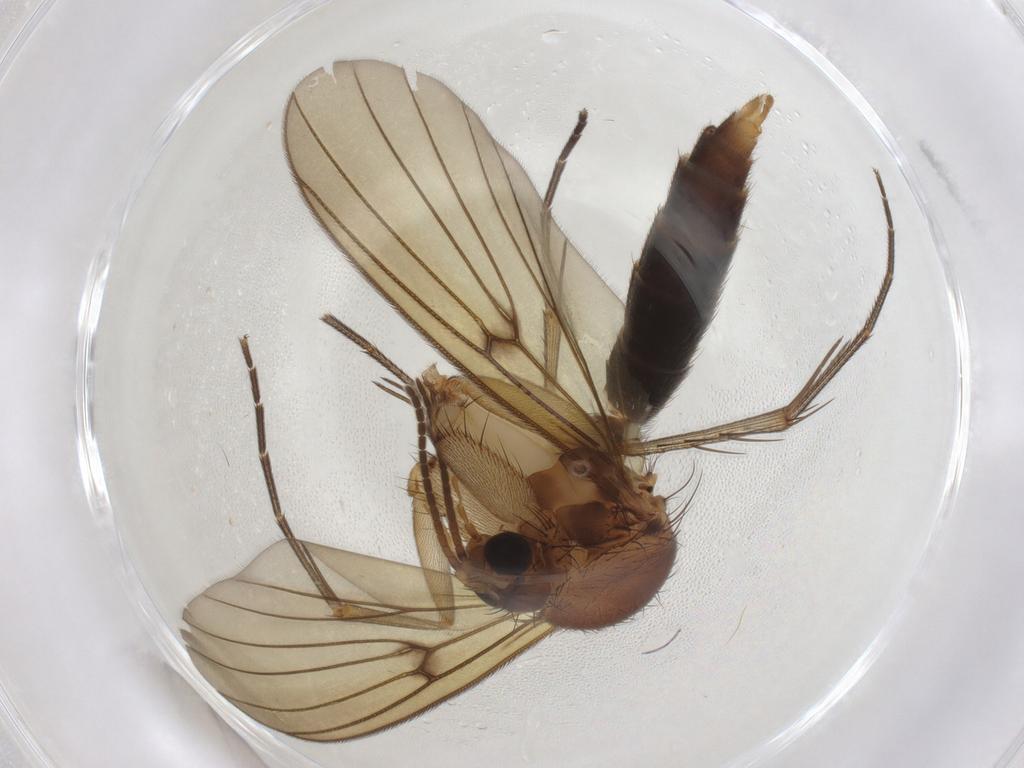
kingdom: Animalia
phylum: Arthropoda
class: Insecta
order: Diptera
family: Mycetophilidae
